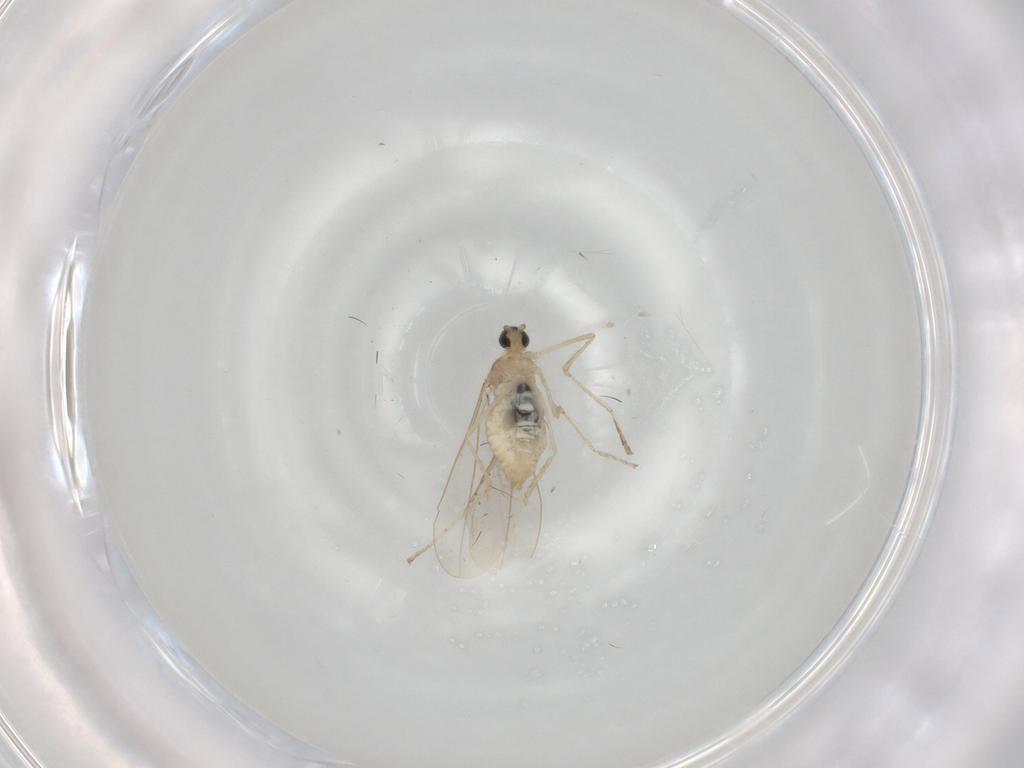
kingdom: Animalia
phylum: Arthropoda
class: Insecta
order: Diptera
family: Cecidomyiidae
